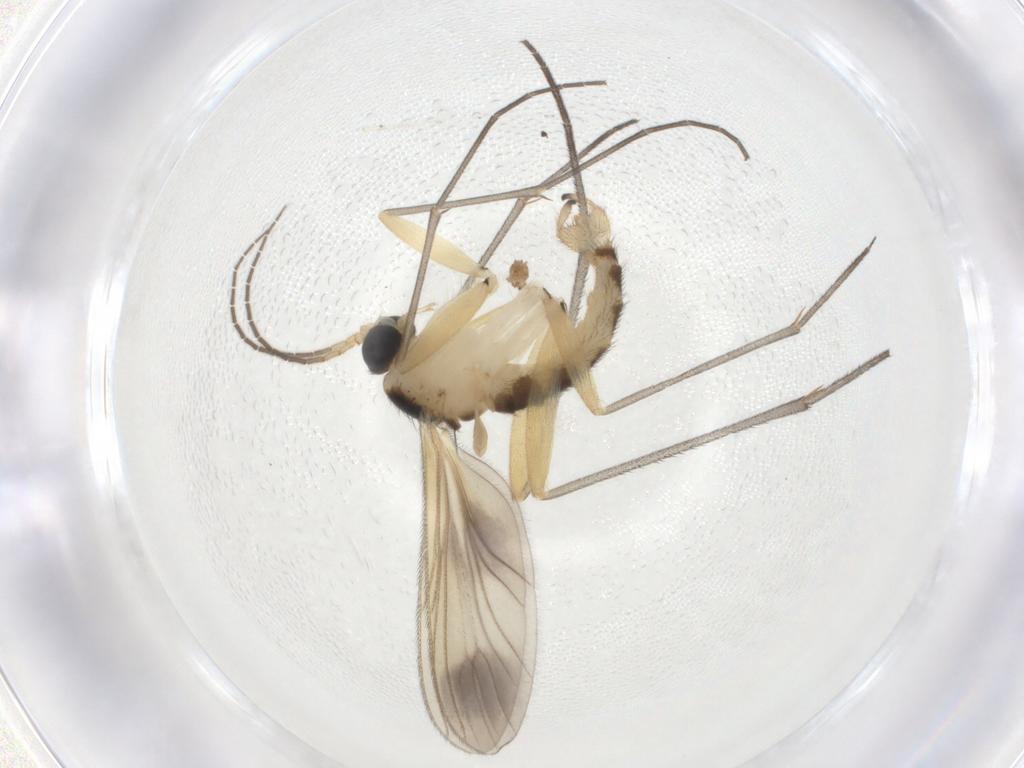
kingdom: Animalia
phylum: Arthropoda
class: Insecta
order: Diptera
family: Sciaridae
